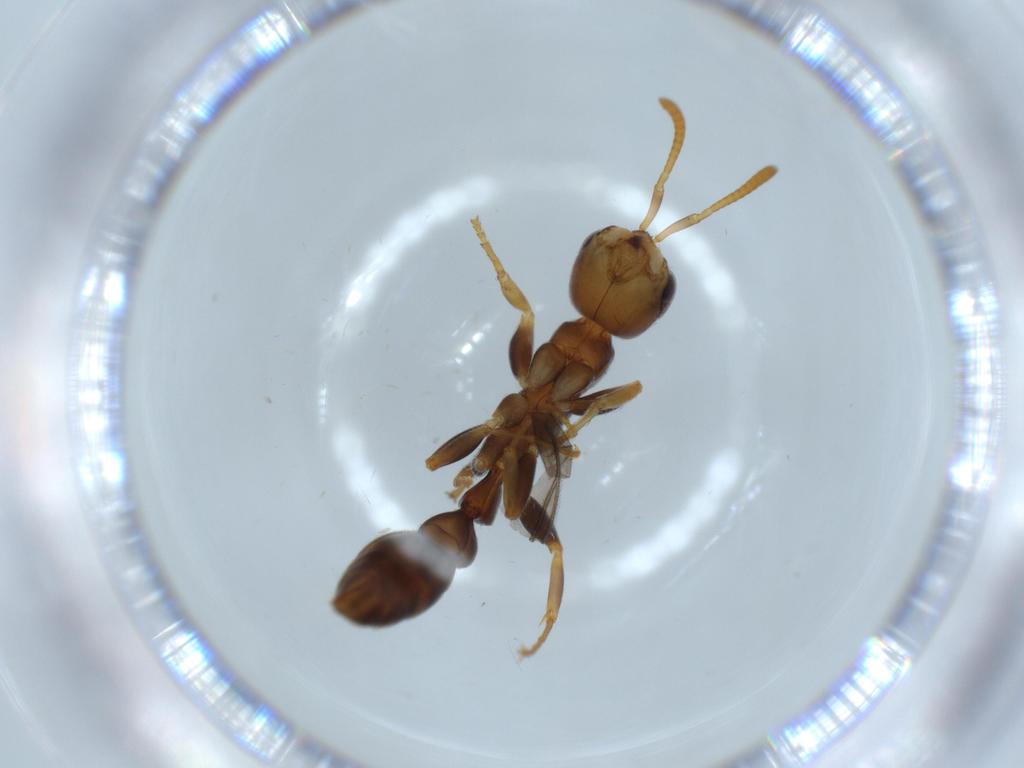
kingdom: Animalia
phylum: Arthropoda
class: Insecta
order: Hymenoptera
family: Formicidae
